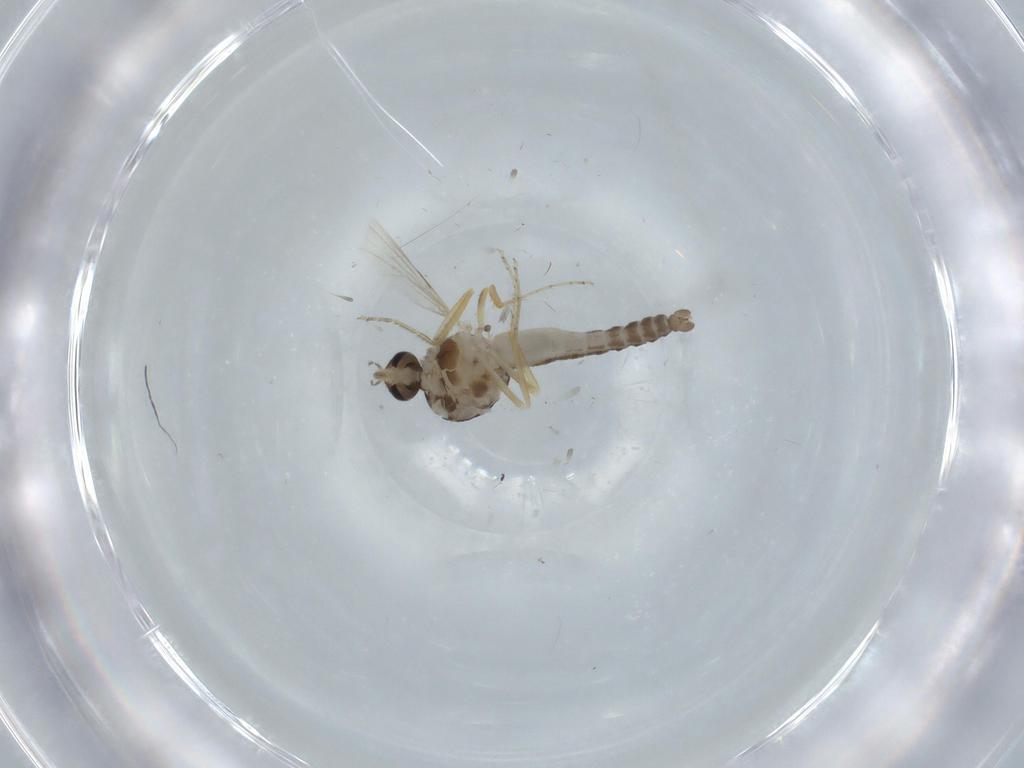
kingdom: Animalia
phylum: Arthropoda
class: Insecta
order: Diptera
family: Ceratopogonidae
